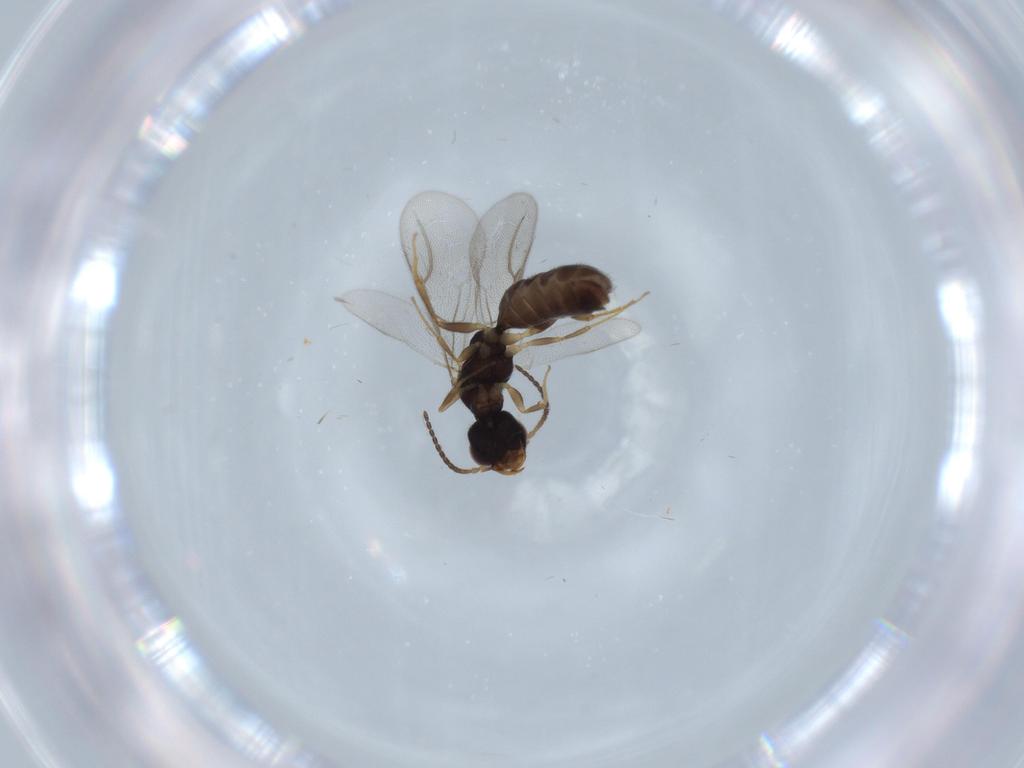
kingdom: Animalia
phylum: Arthropoda
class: Insecta
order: Hymenoptera
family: Bethylidae
